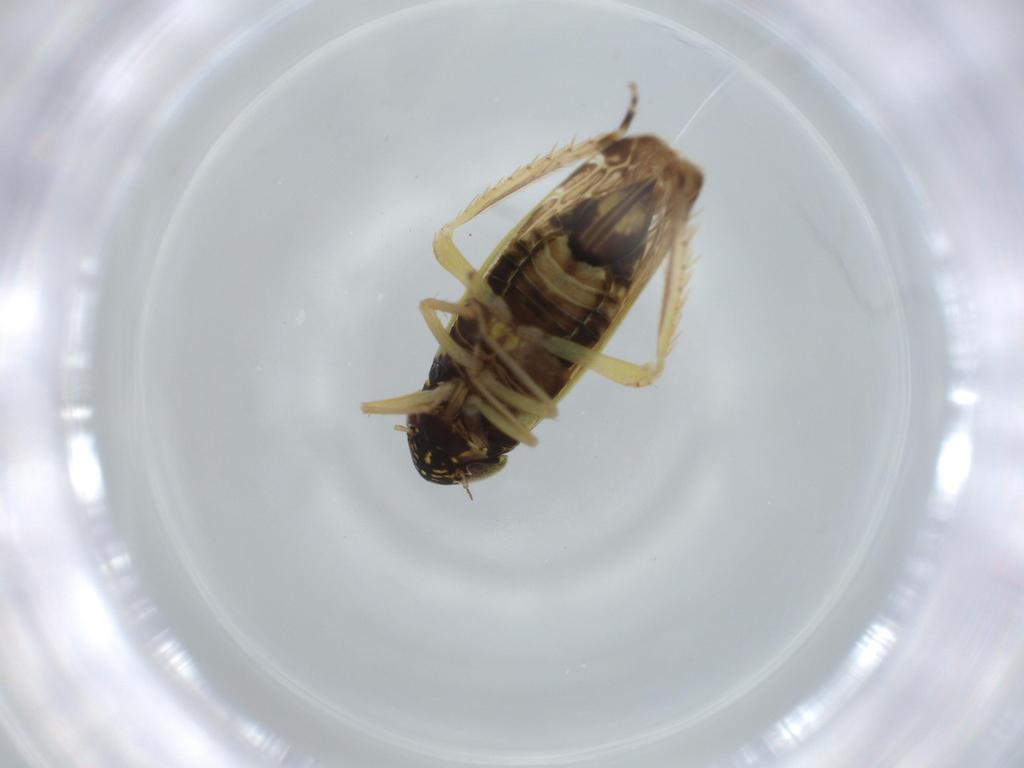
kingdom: Animalia
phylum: Arthropoda
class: Insecta
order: Hemiptera
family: Cicadellidae
